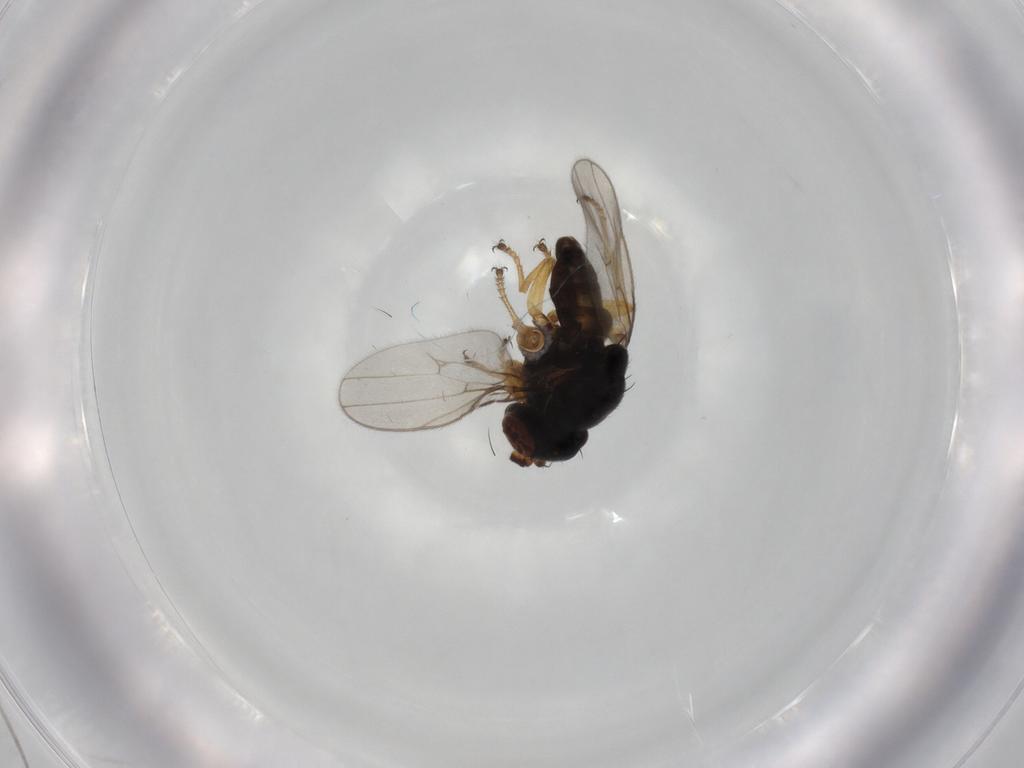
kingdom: Animalia
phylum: Arthropoda
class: Insecta
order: Diptera
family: Ephydridae
